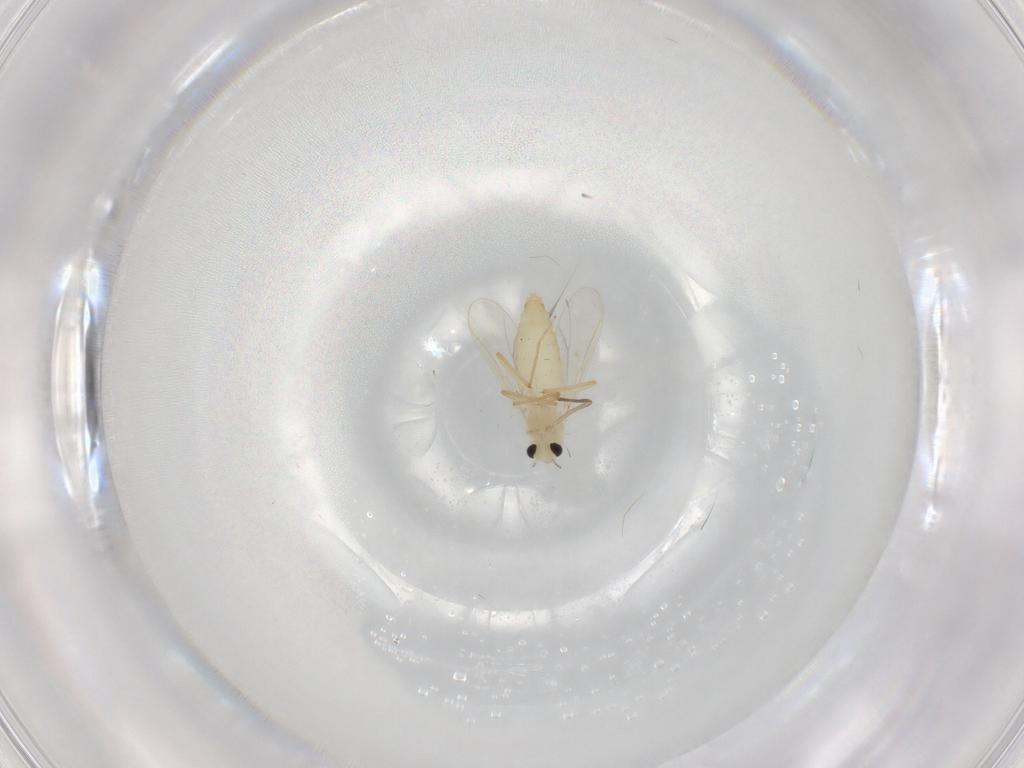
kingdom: Animalia
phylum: Arthropoda
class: Insecta
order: Diptera
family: Chironomidae
